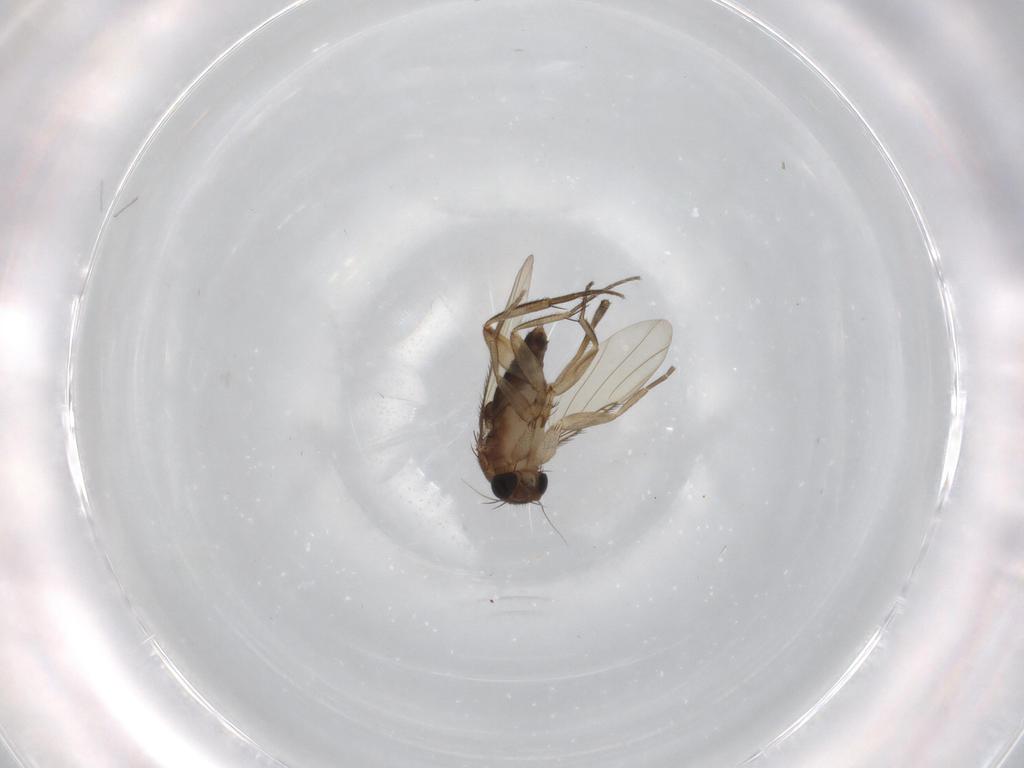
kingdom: Animalia
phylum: Arthropoda
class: Insecta
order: Diptera
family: Phoridae
